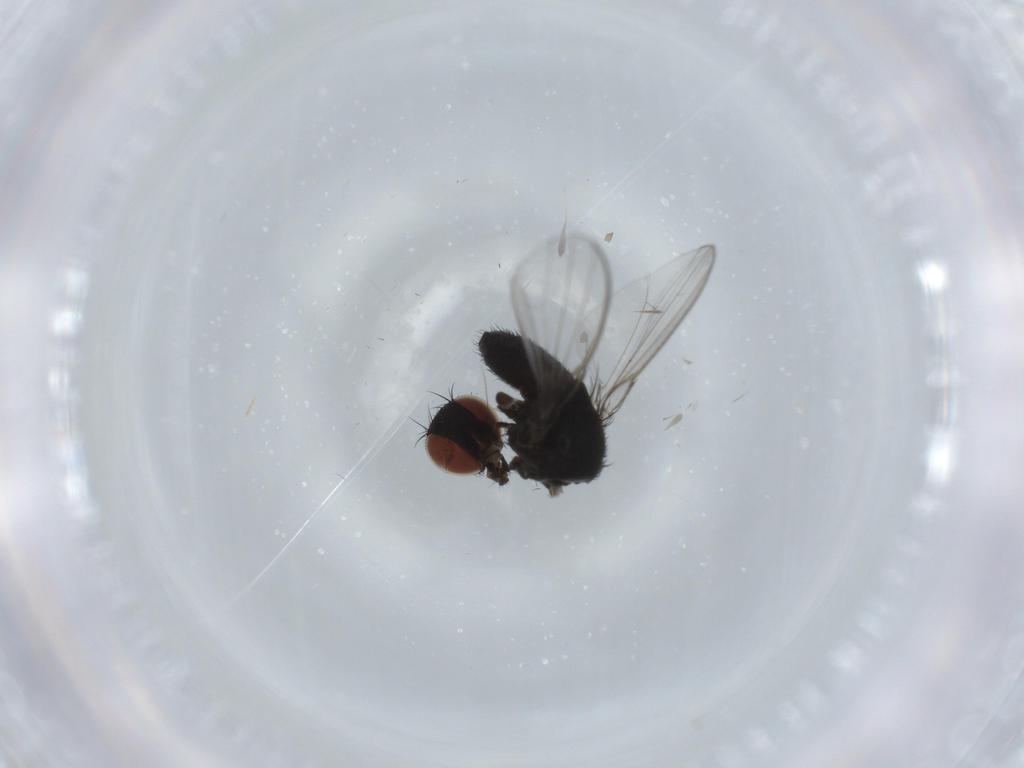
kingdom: Animalia
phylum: Arthropoda
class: Insecta
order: Diptera
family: Milichiidae
